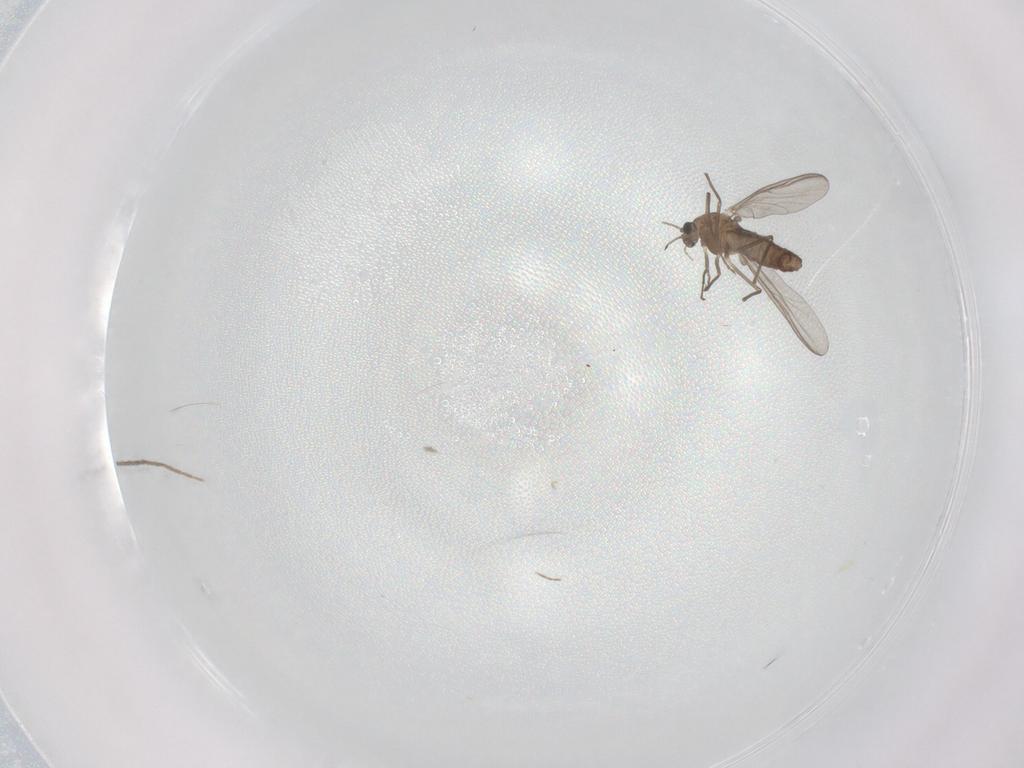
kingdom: Animalia
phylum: Arthropoda
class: Insecta
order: Diptera
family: Chironomidae
